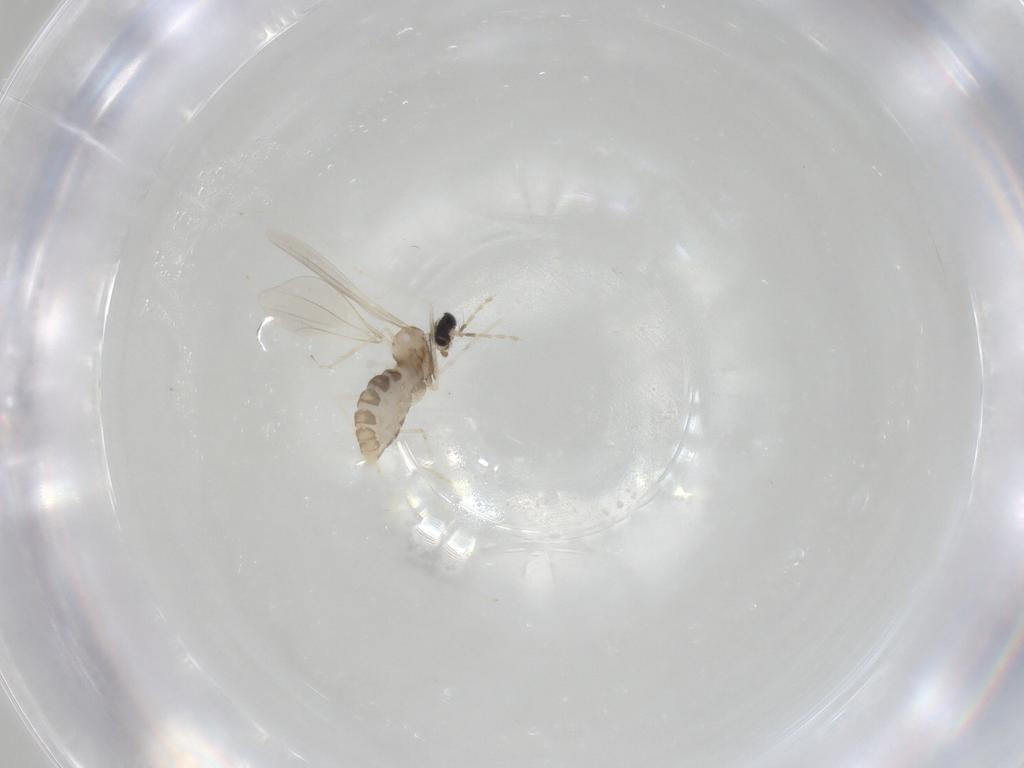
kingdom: Animalia
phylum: Arthropoda
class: Insecta
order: Diptera
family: Cecidomyiidae
